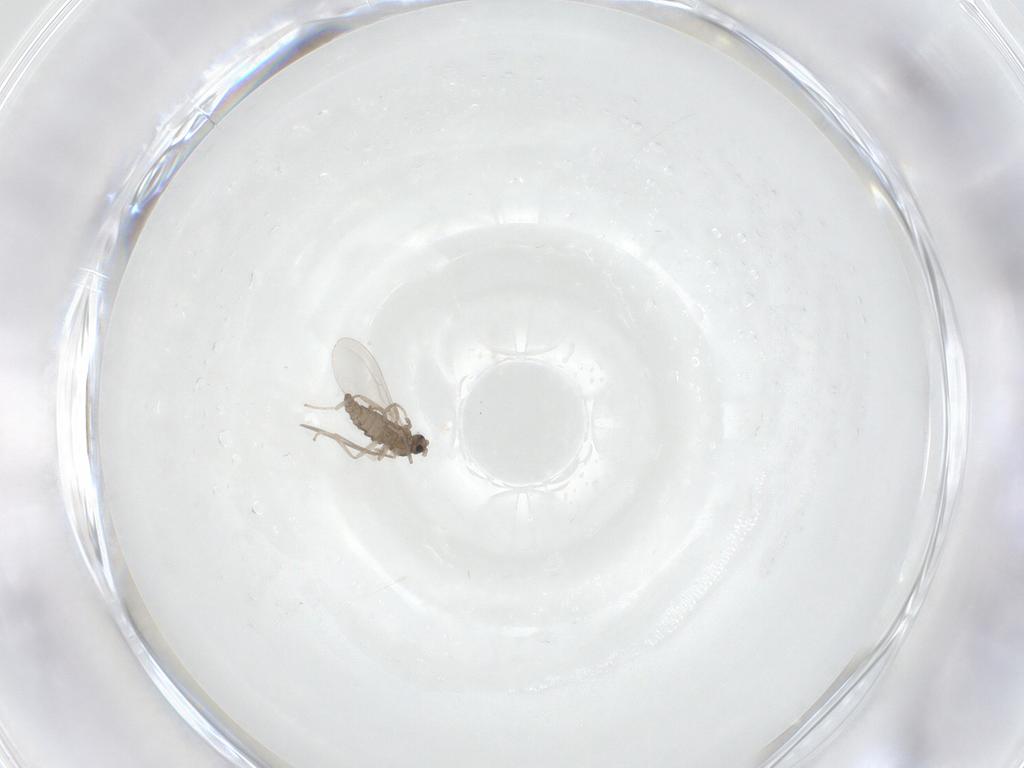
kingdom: Animalia
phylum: Arthropoda
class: Insecta
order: Diptera
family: Cecidomyiidae
